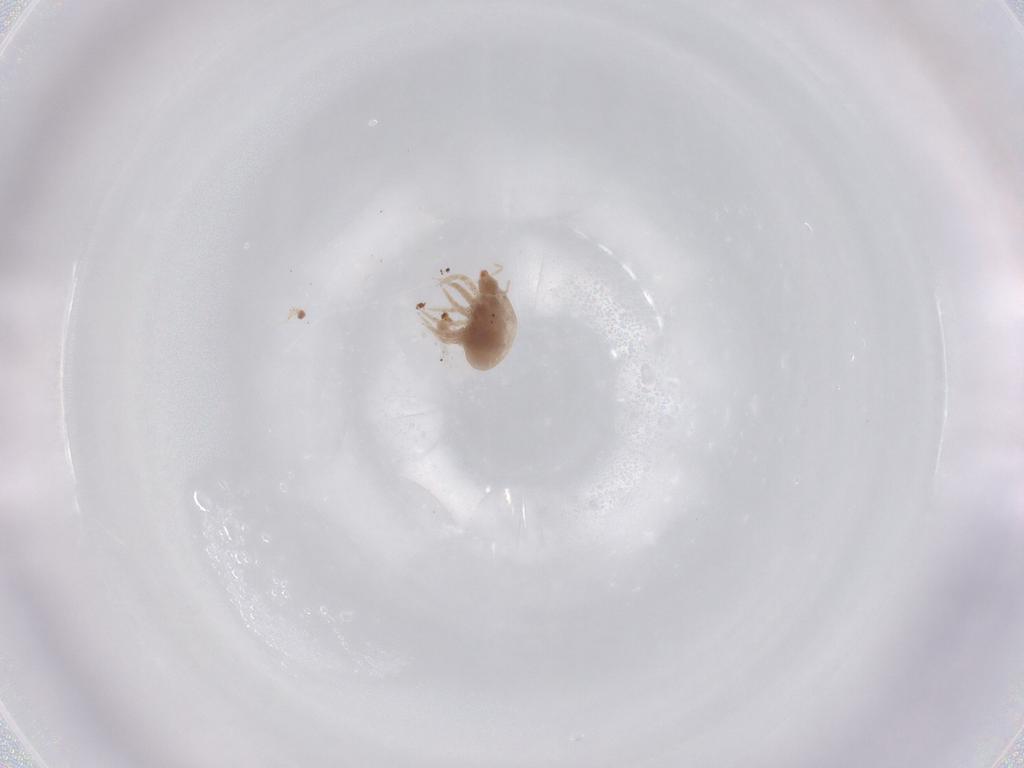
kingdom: Animalia
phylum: Arthropoda
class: Arachnida
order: Trombidiformes
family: Bdellidae
